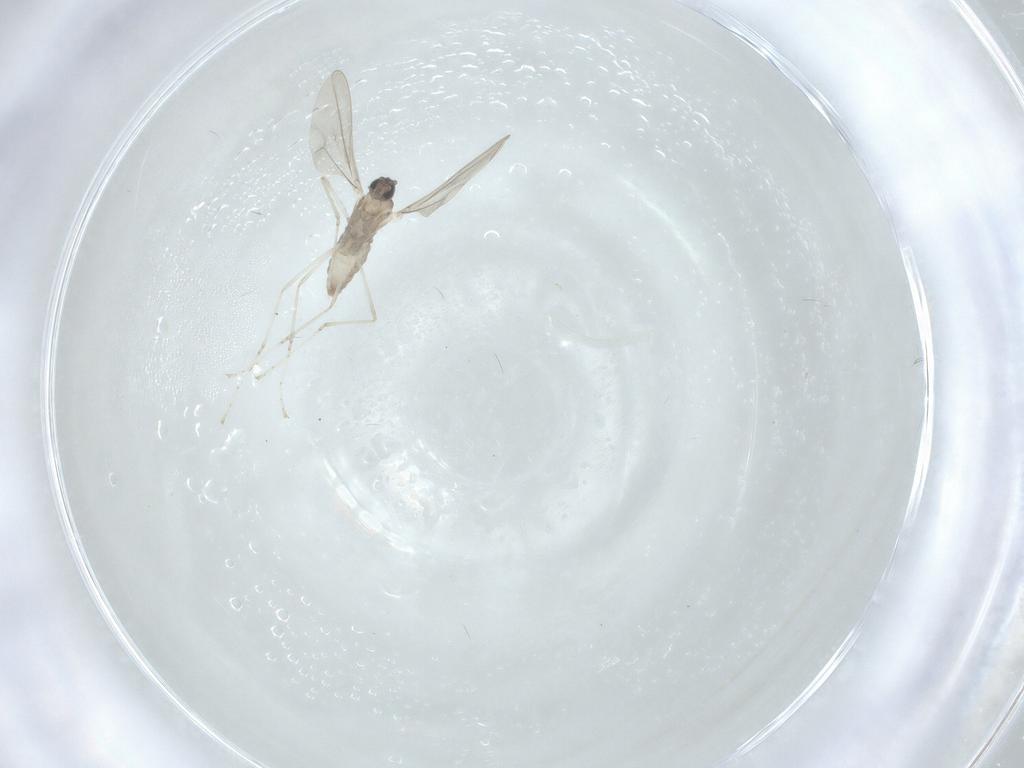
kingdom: Animalia
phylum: Arthropoda
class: Insecta
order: Diptera
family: Cecidomyiidae
